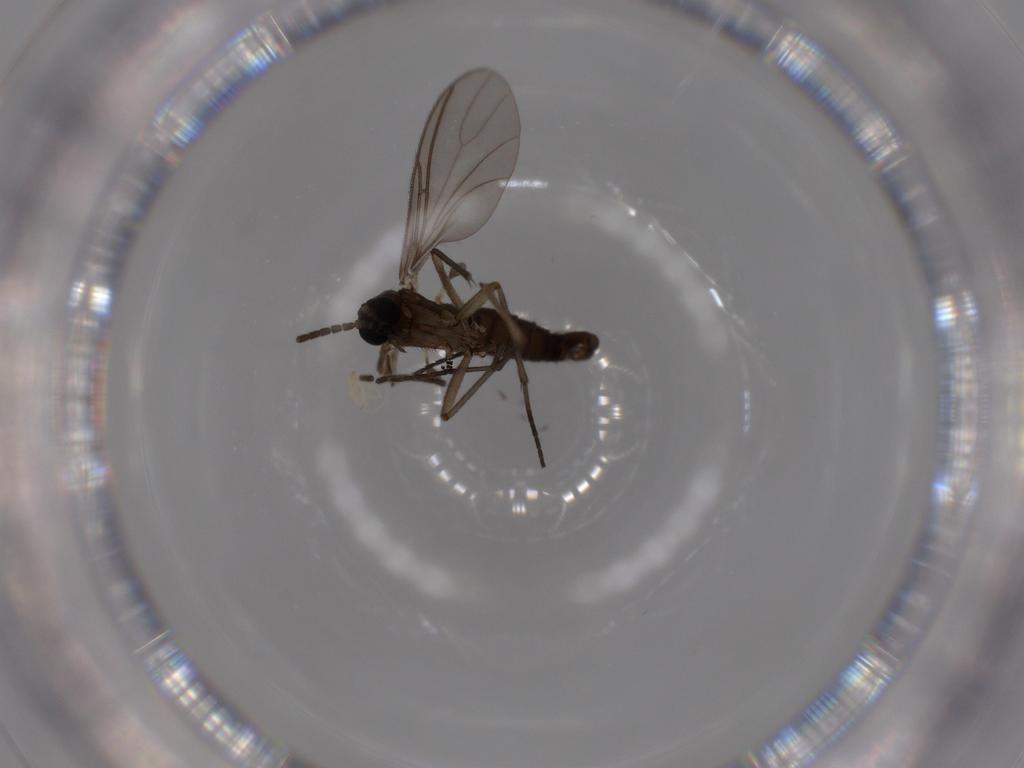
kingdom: Animalia
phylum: Arthropoda
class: Insecta
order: Diptera
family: Sciaridae
